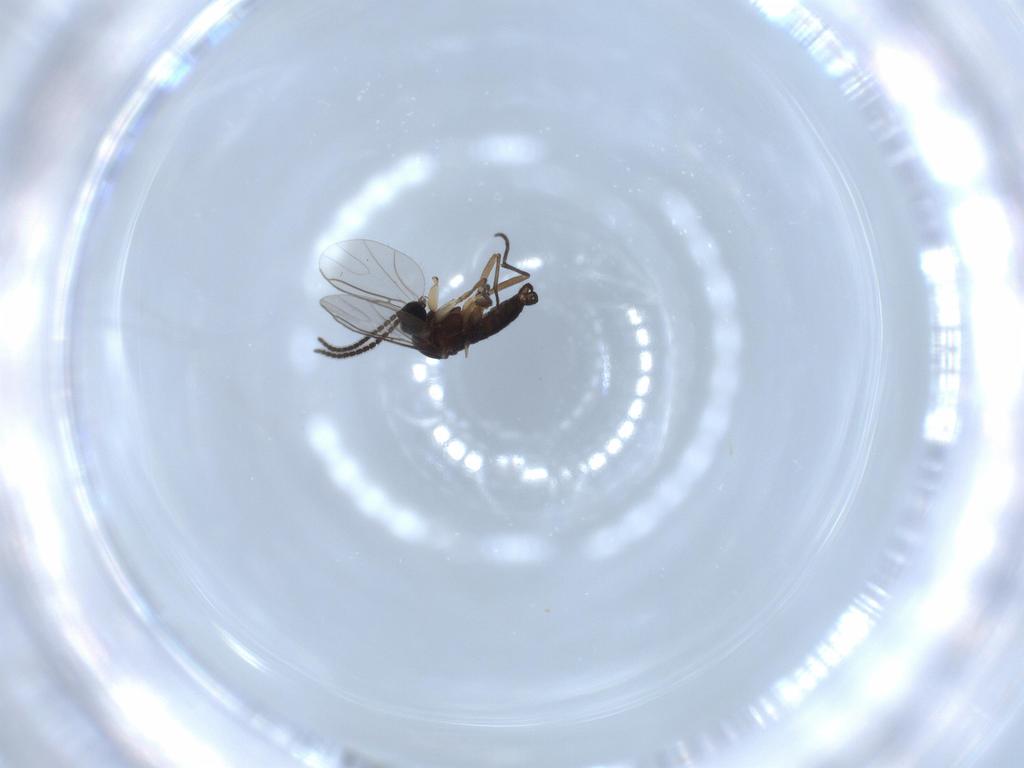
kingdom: Animalia
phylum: Arthropoda
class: Insecta
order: Diptera
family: Sciaridae
